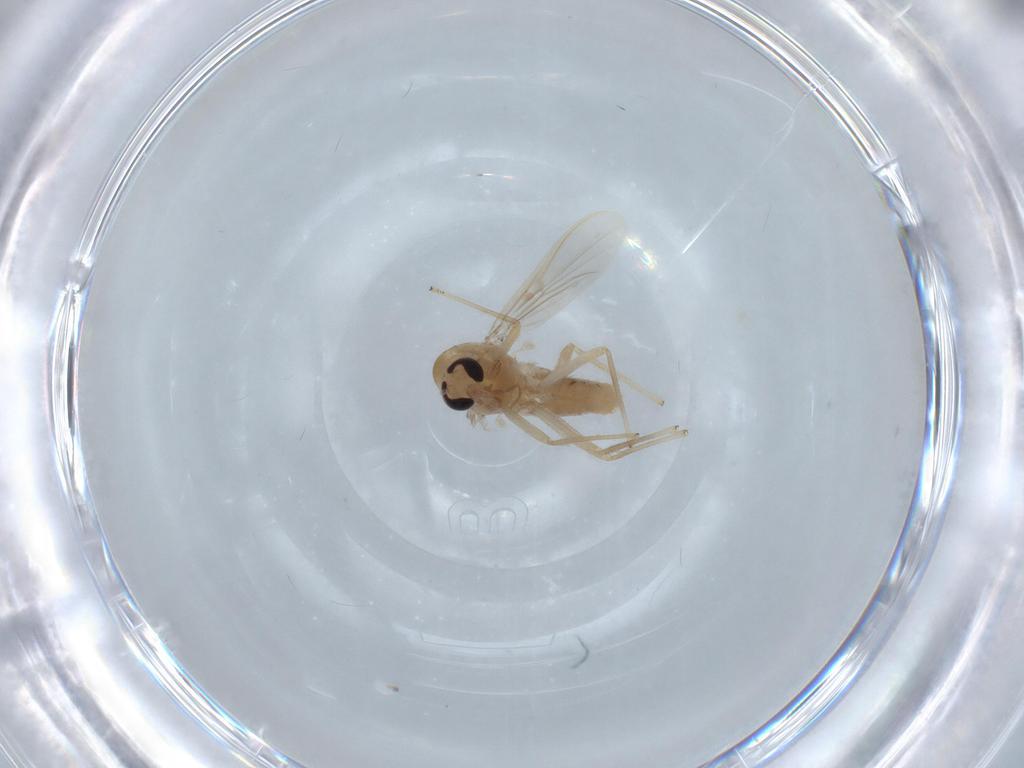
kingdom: Animalia
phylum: Arthropoda
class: Insecta
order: Diptera
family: Chironomidae
